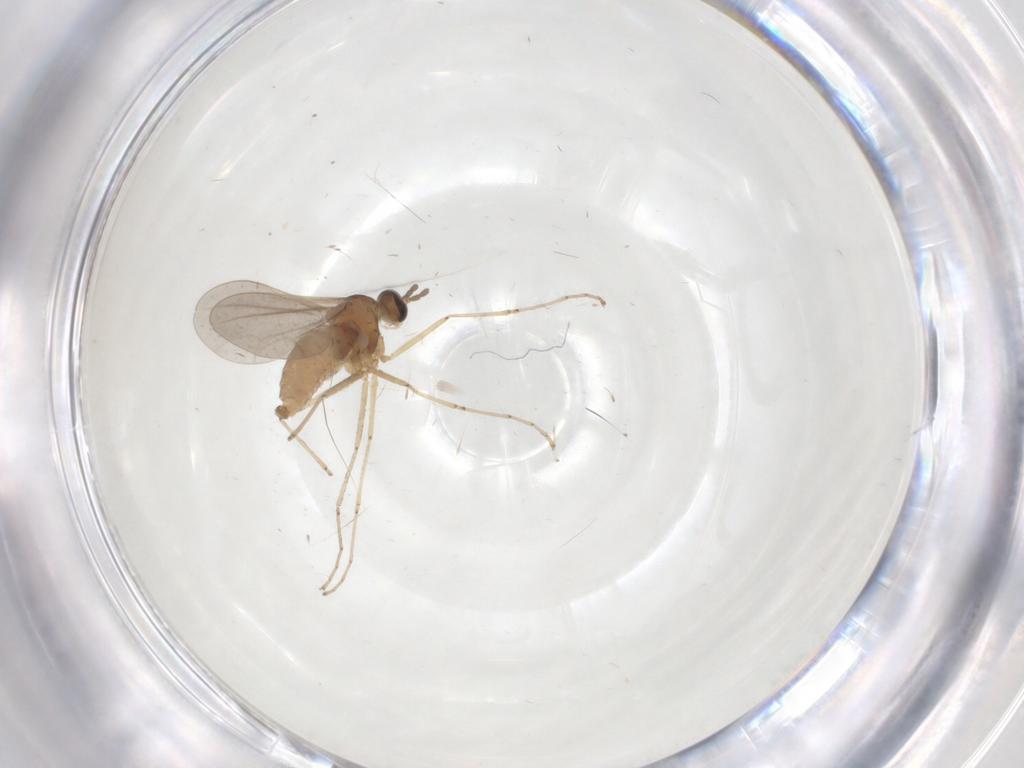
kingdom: Animalia
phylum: Arthropoda
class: Insecta
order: Diptera
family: Cecidomyiidae
